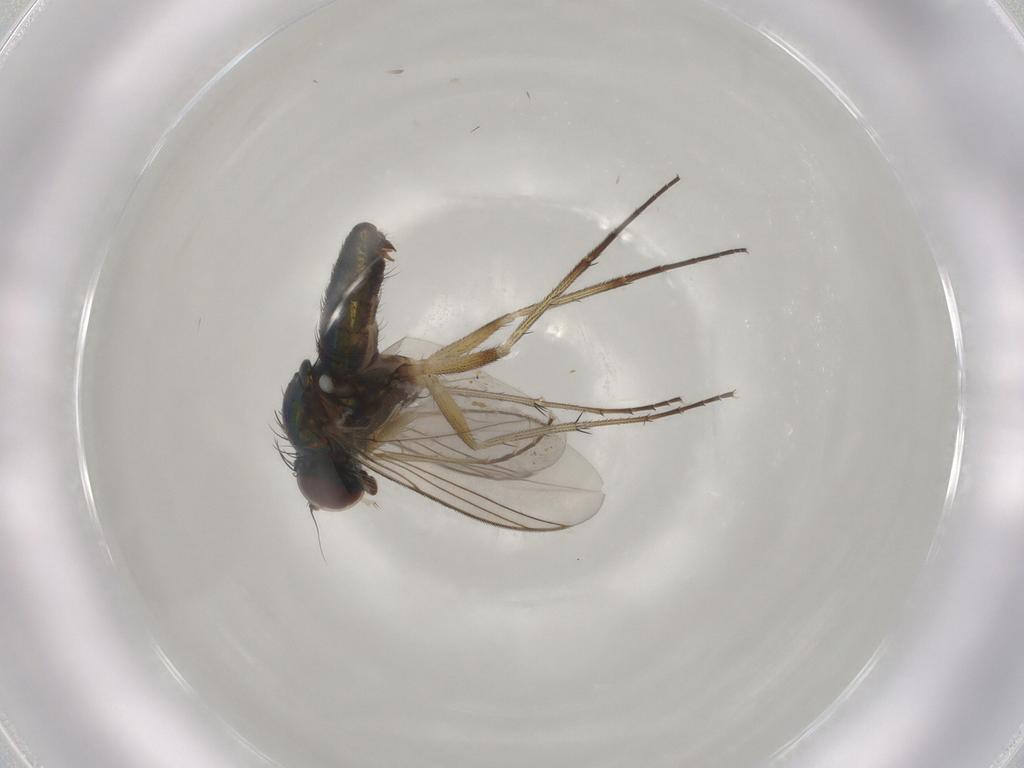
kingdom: Animalia
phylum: Arthropoda
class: Insecta
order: Diptera
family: Dolichopodidae
